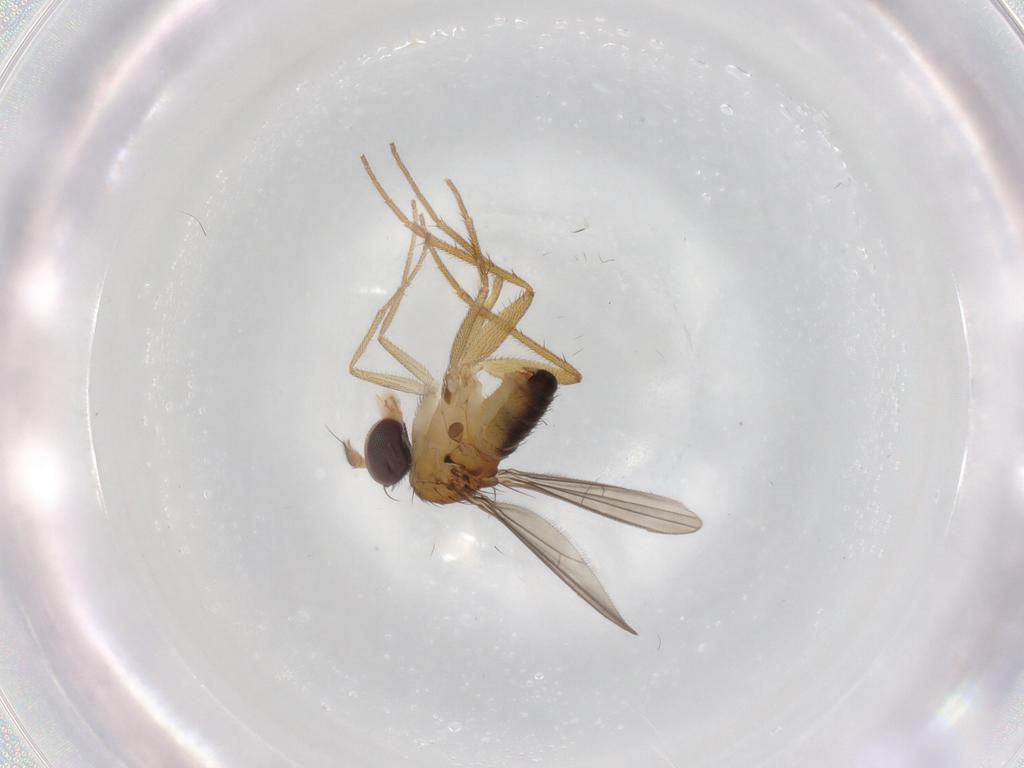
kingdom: Animalia
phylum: Arthropoda
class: Insecta
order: Diptera
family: Dolichopodidae
